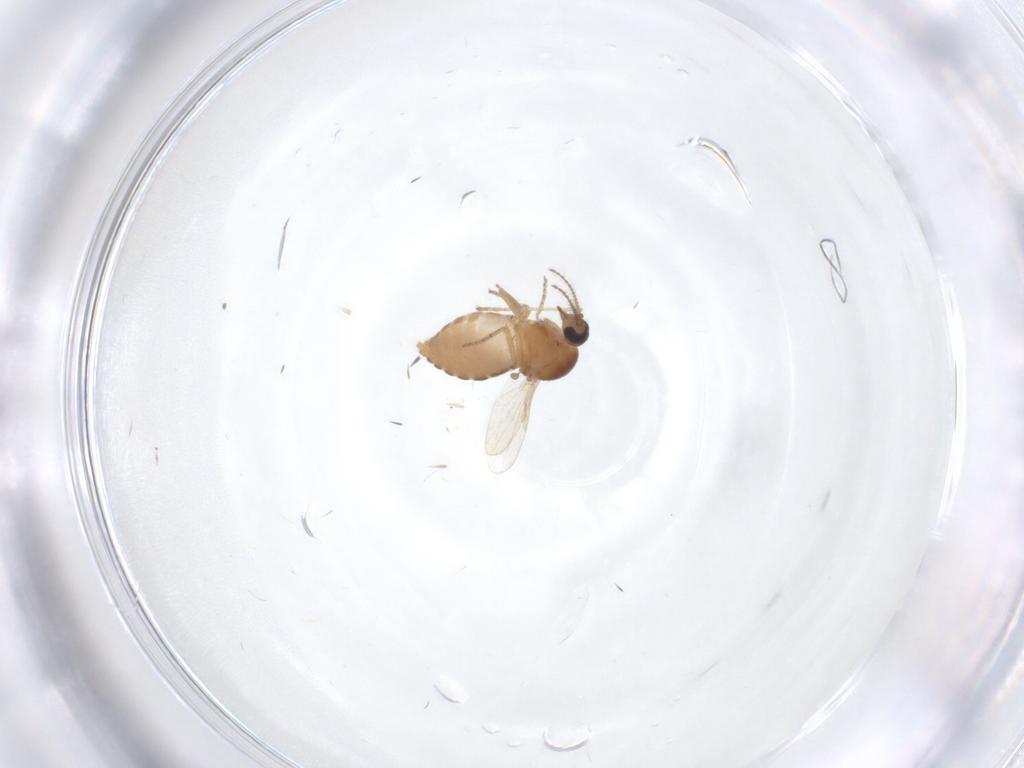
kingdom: Animalia
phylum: Arthropoda
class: Insecta
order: Diptera
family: Ceratopogonidae
